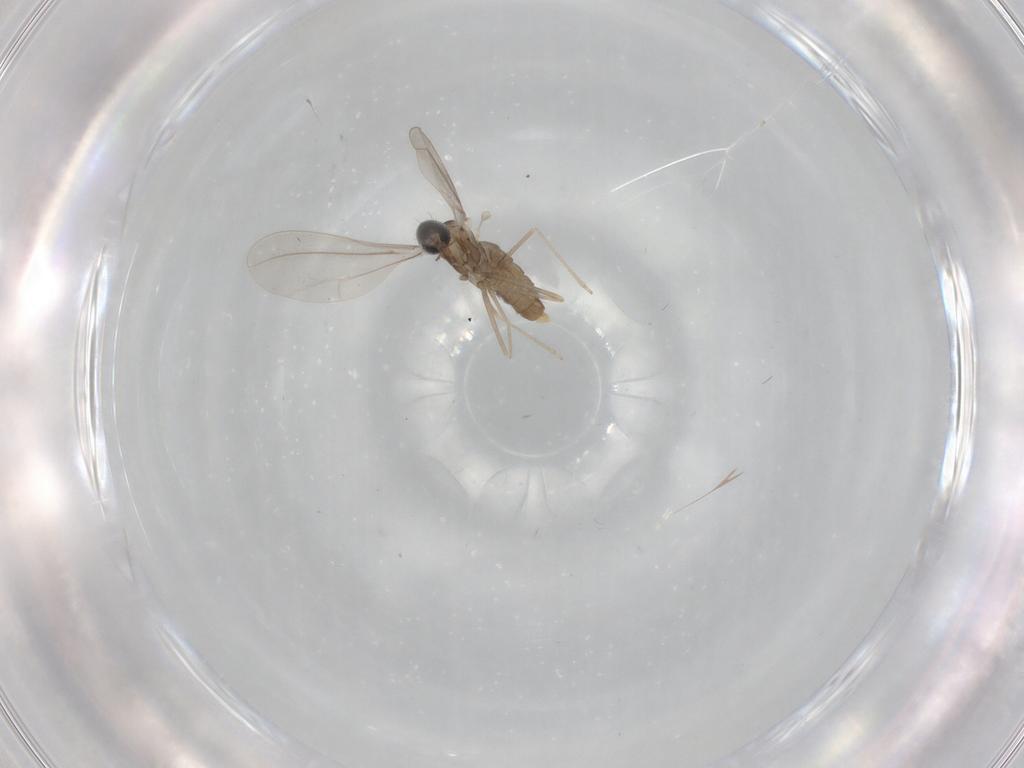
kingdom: Animalia
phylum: Arthropoda
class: Insecta
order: Diptera
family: Cecidomyiidae
